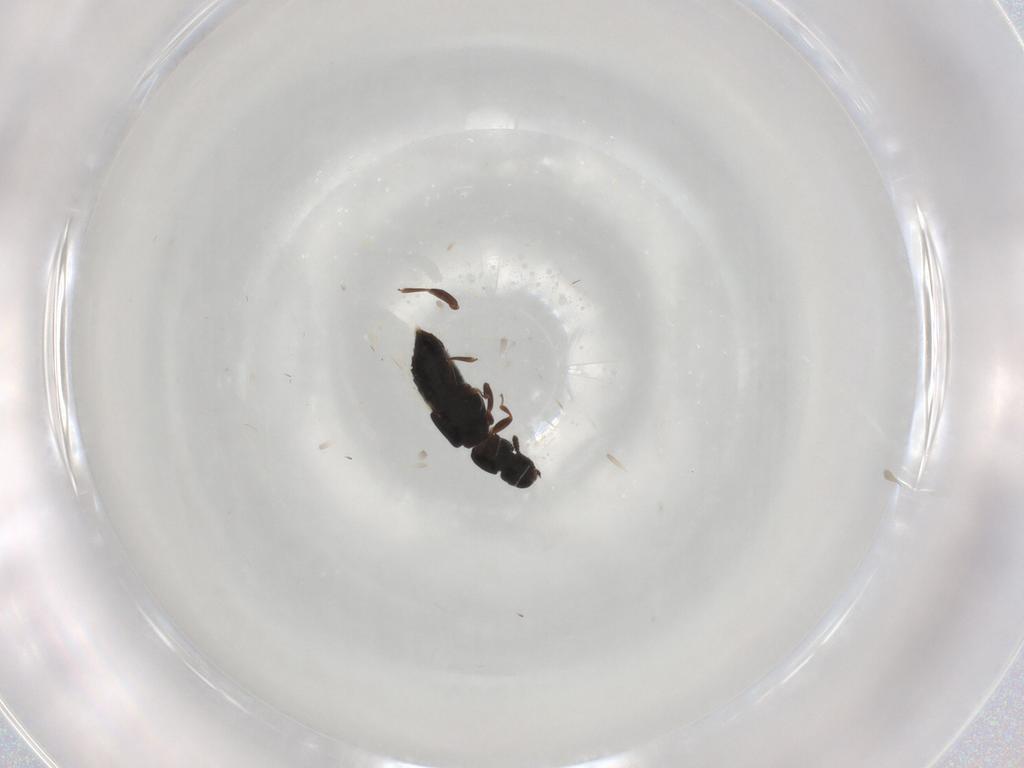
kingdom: Animalia
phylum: Arthropoda
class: Insecta
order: Coleoptera
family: Staphylinidae
